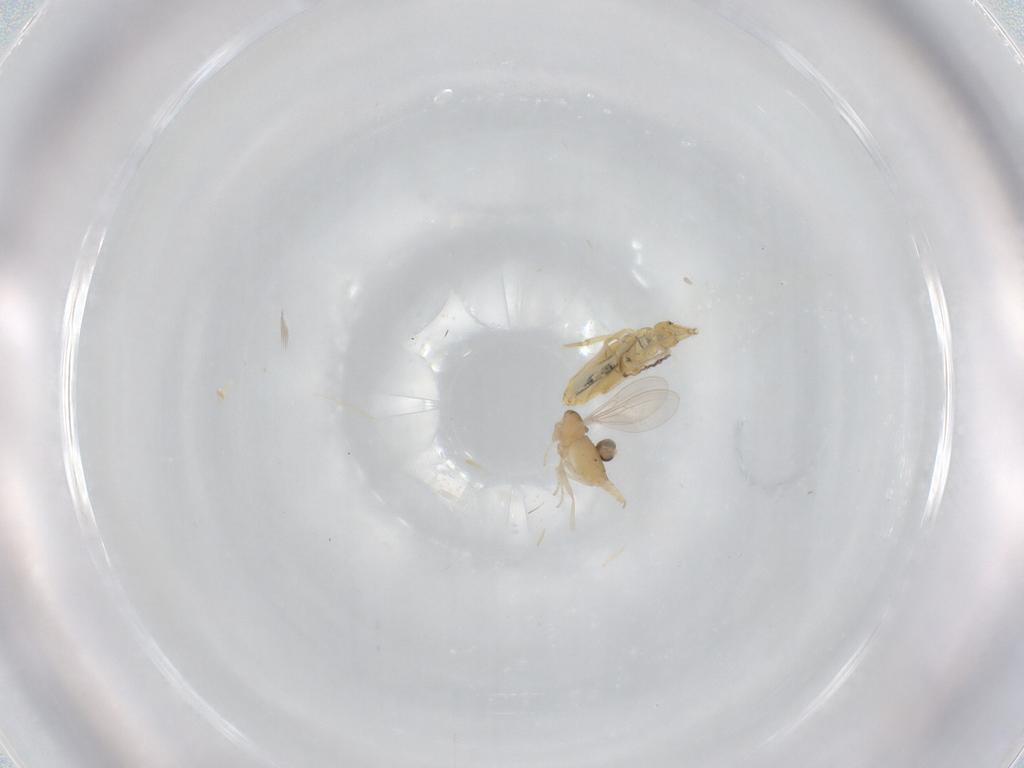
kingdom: Animalia
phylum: Arthropoda
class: Insecta
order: Diptera
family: Cecidomyiidae
